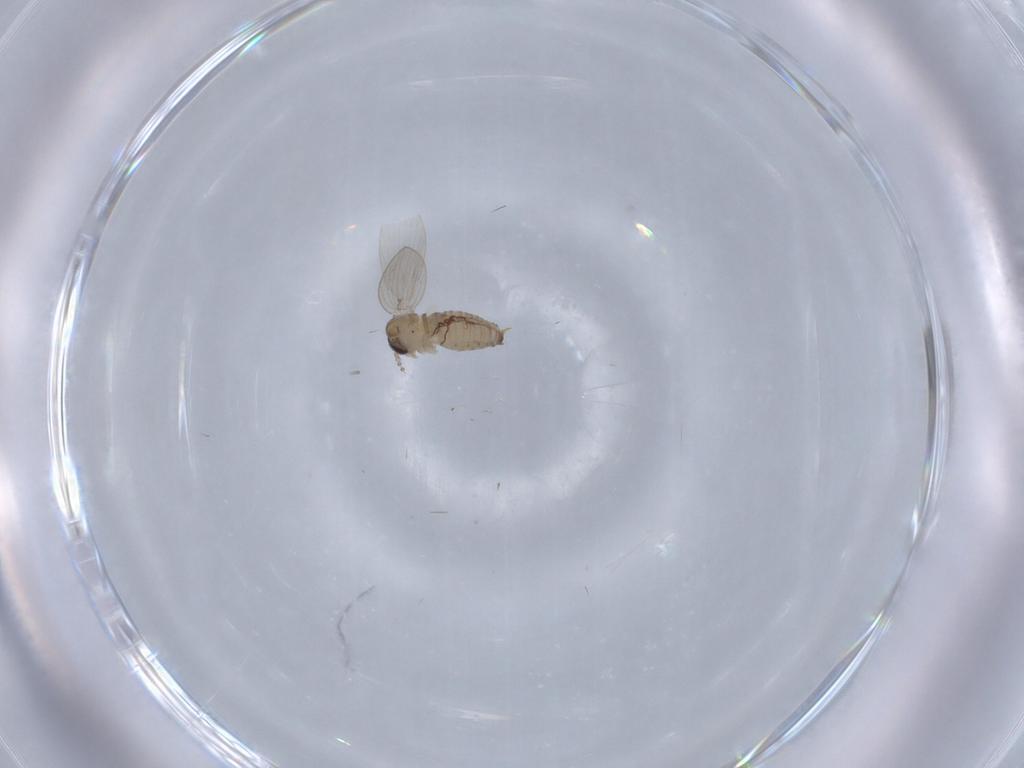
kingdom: Animalia
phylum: Arthropoda
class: Insecta
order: Diptera
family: Psychodidae
